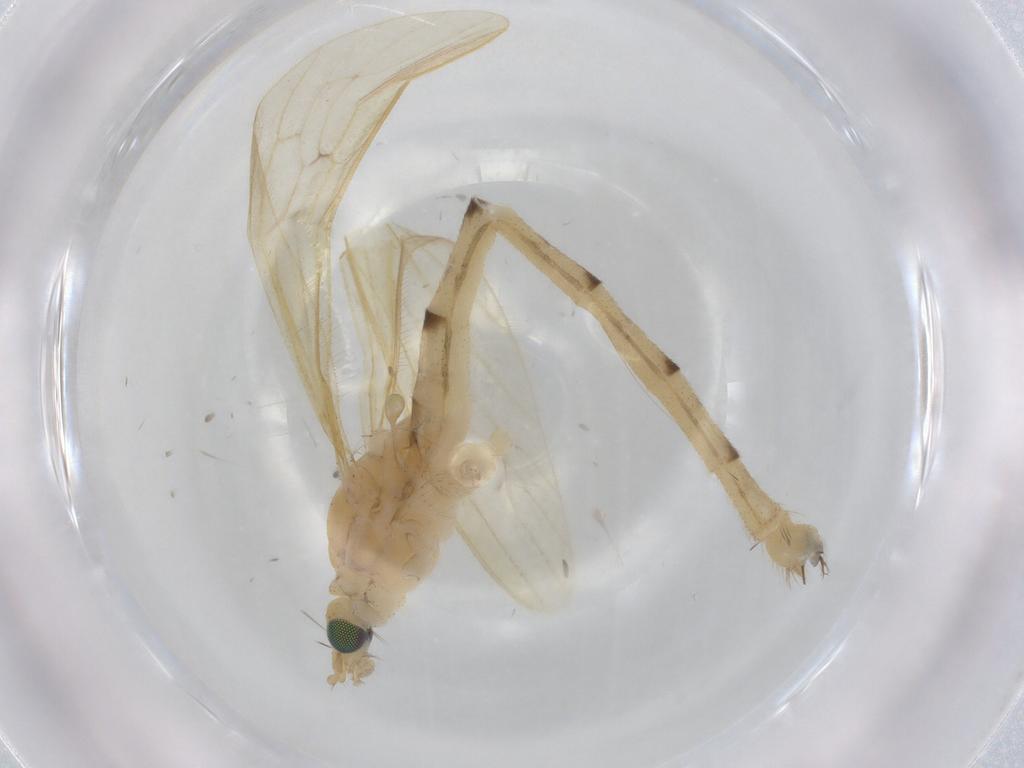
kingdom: Animalia
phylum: Arthropoda
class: Insecta
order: Diptera
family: Limoniidae
